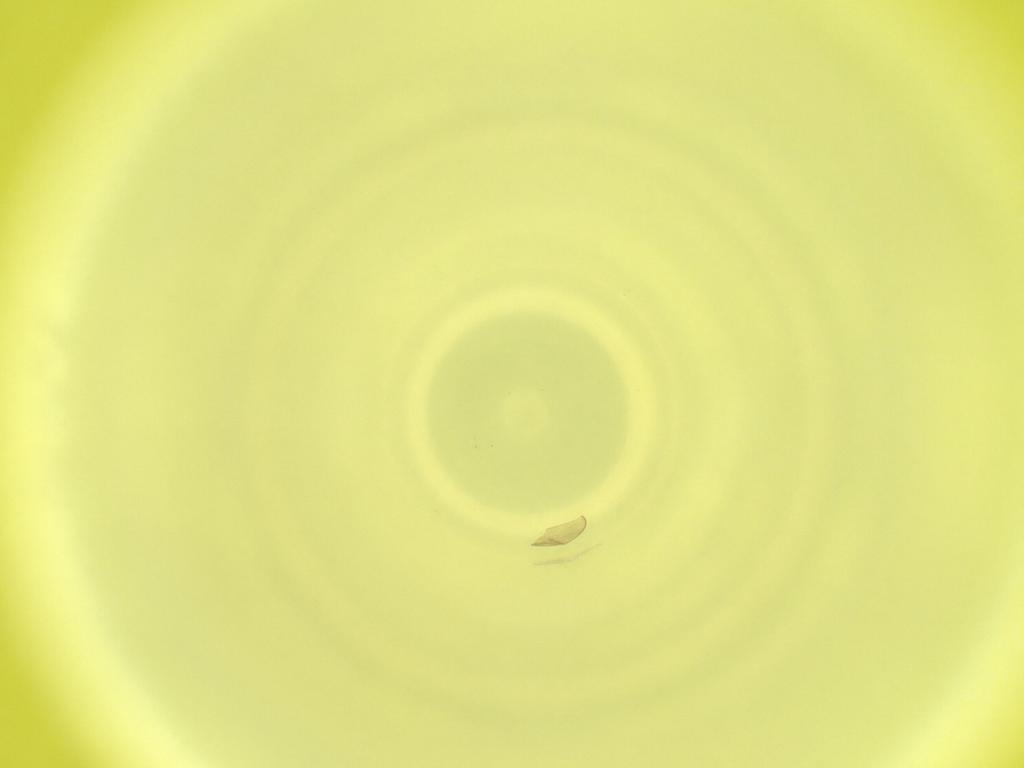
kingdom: Animalia
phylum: Arthropoda
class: Insecta
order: Diptera
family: Cecidomyiidae
